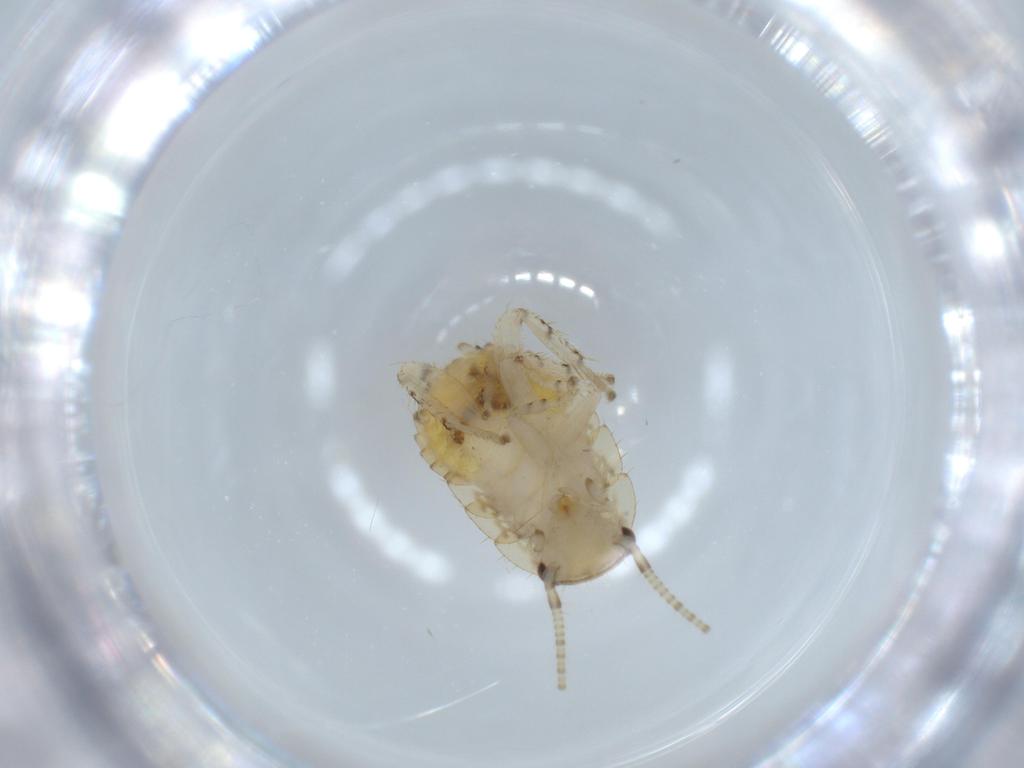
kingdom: Animalia
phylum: Arthropoda
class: Insecta
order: Blattodea
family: Ectobiidae
